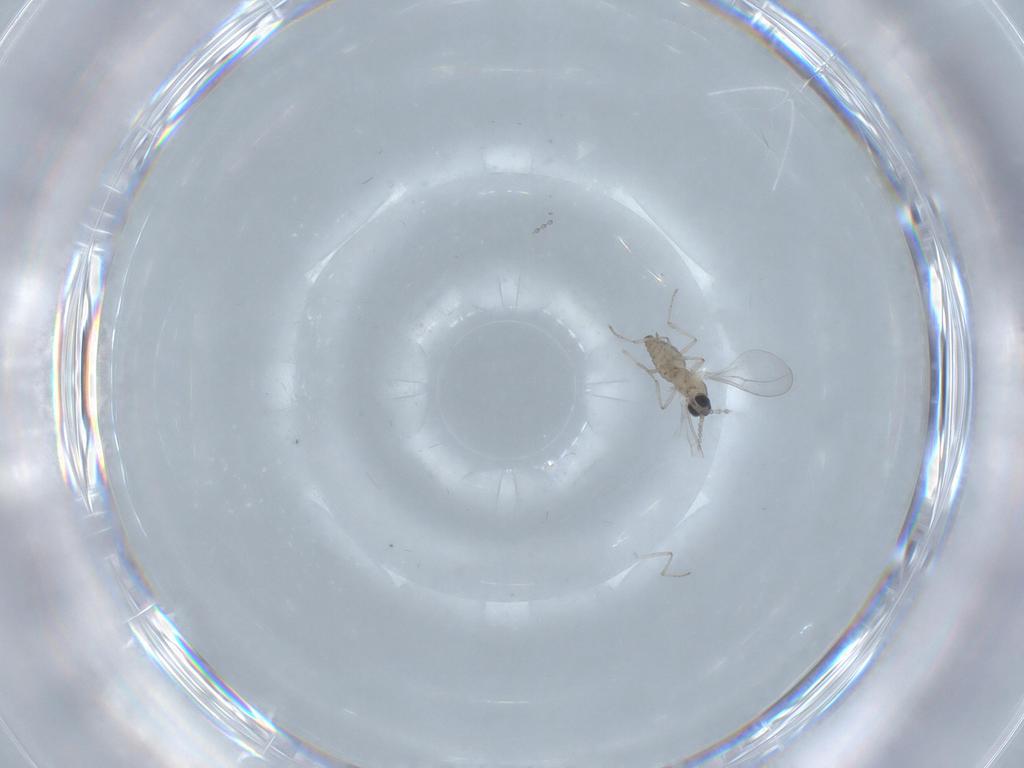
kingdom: Animalia
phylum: Arthropoda
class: Insecta
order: Diptera
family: Cecidomyiidae
